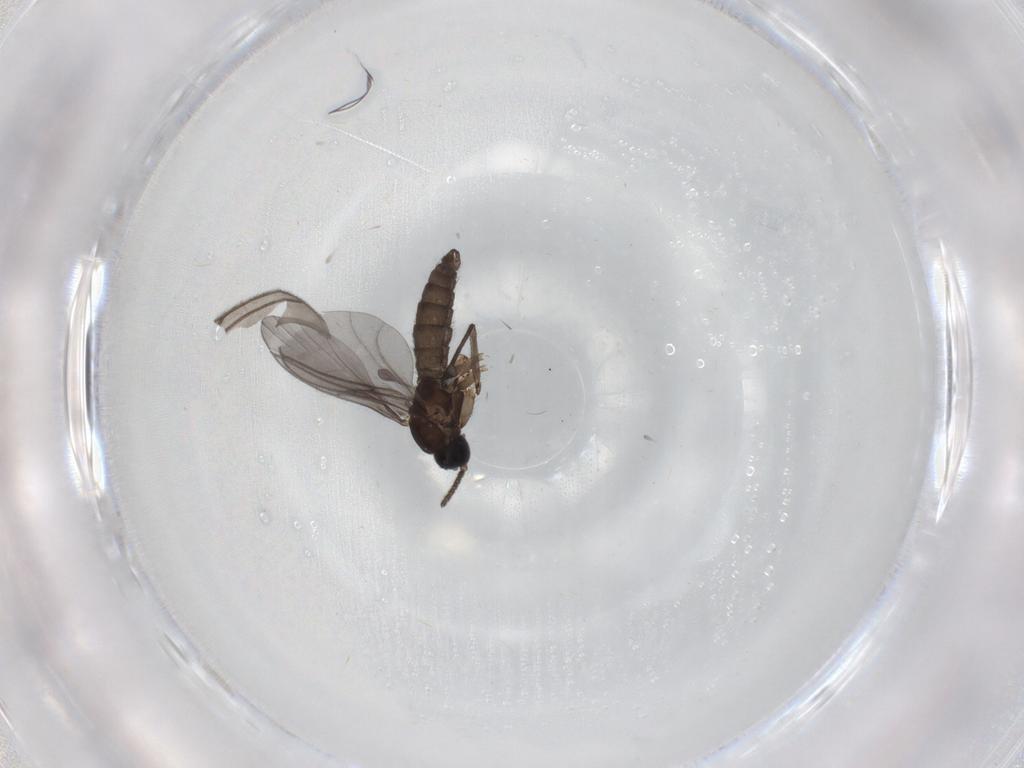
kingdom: Animalia
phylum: Arthropoda
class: Insecta
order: Diptera
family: Sciaridae
